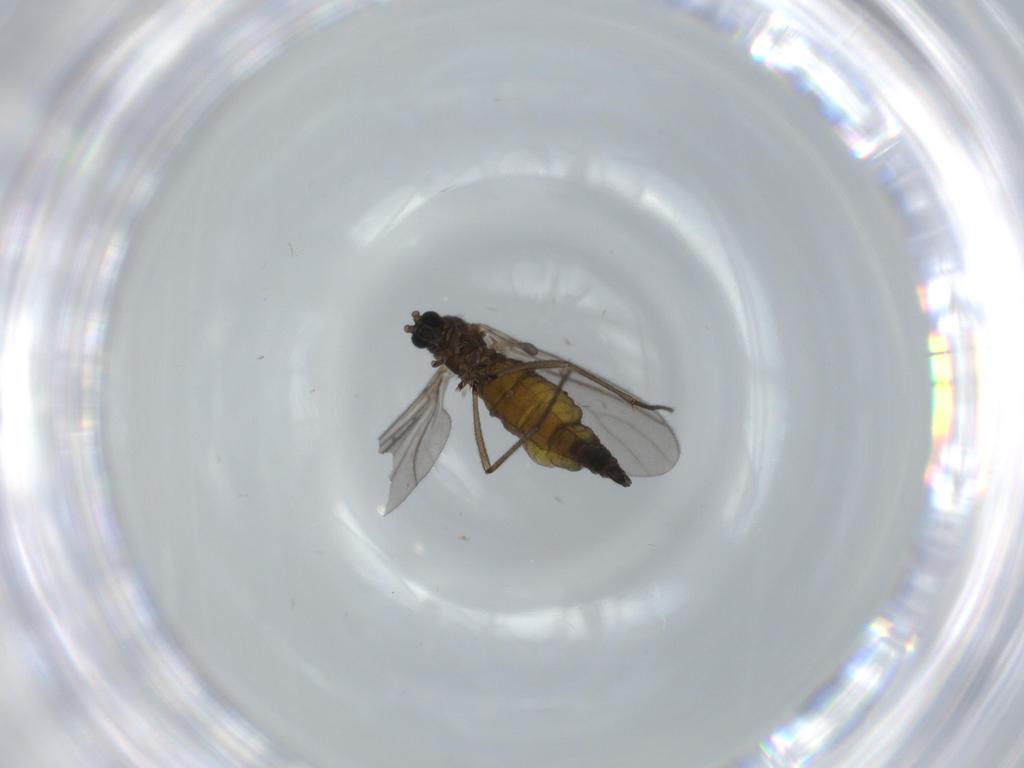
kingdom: Animalia
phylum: Arthropoda
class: Insecta
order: Diptera
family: Sciaridae
